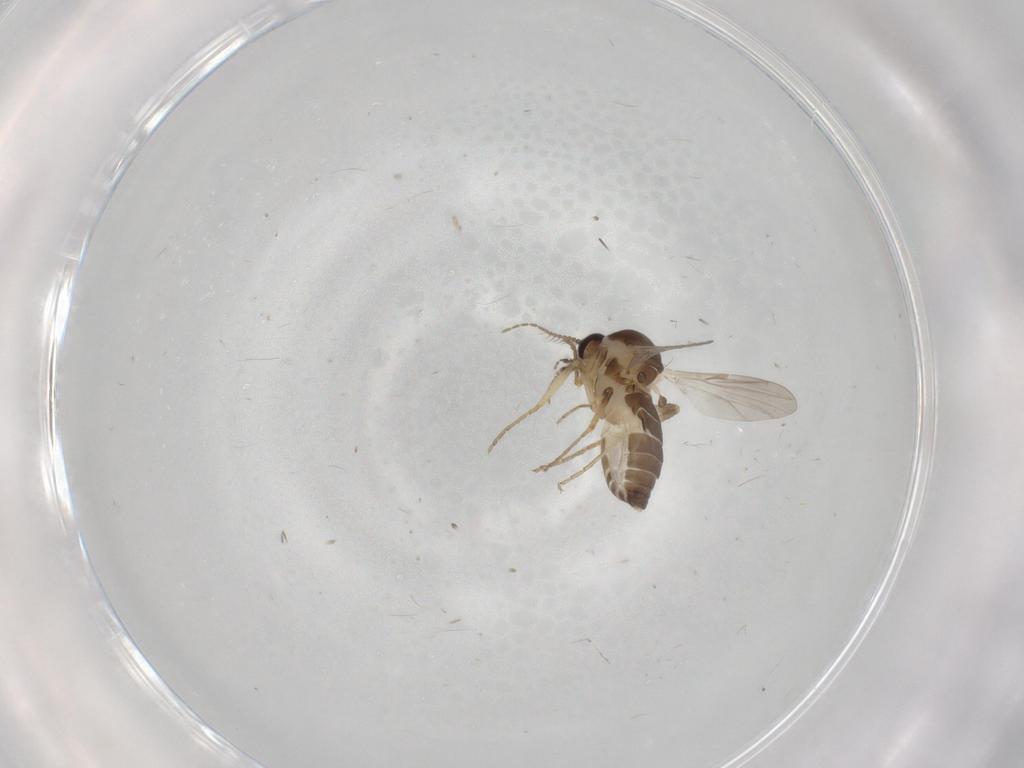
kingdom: Animalia
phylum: Arthropoda
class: Insecta
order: Diptera
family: Ceratopogonidae
